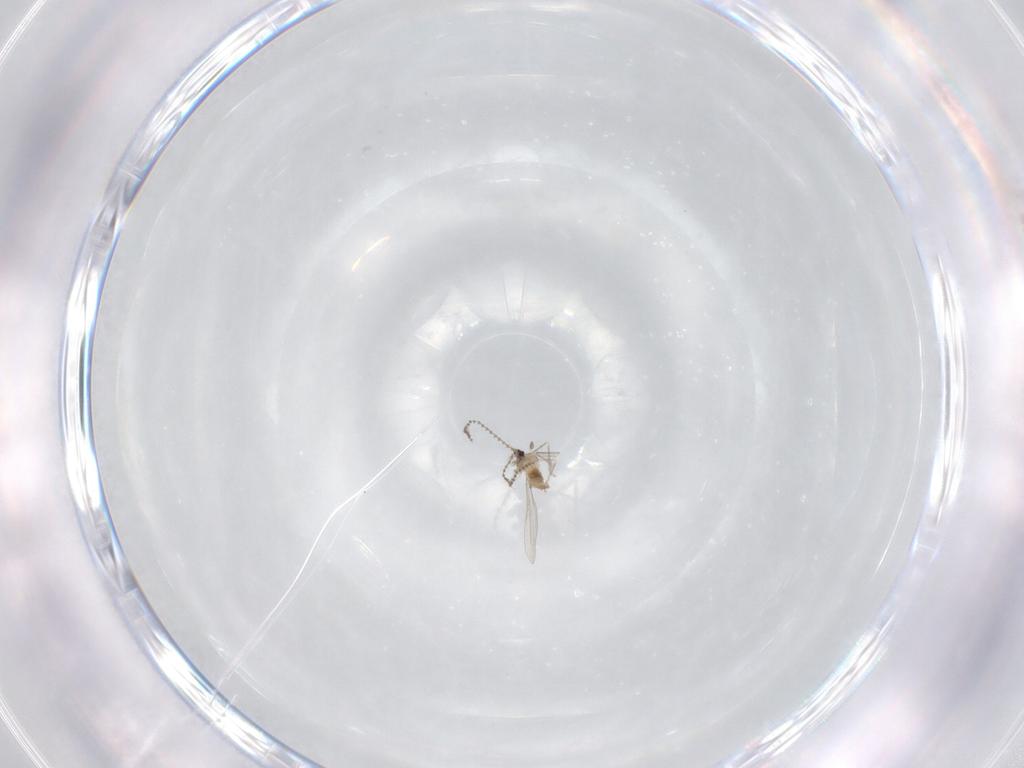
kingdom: Animalia
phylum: Arthropoda
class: Insecta
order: Diptera
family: Cecidomyiidae
